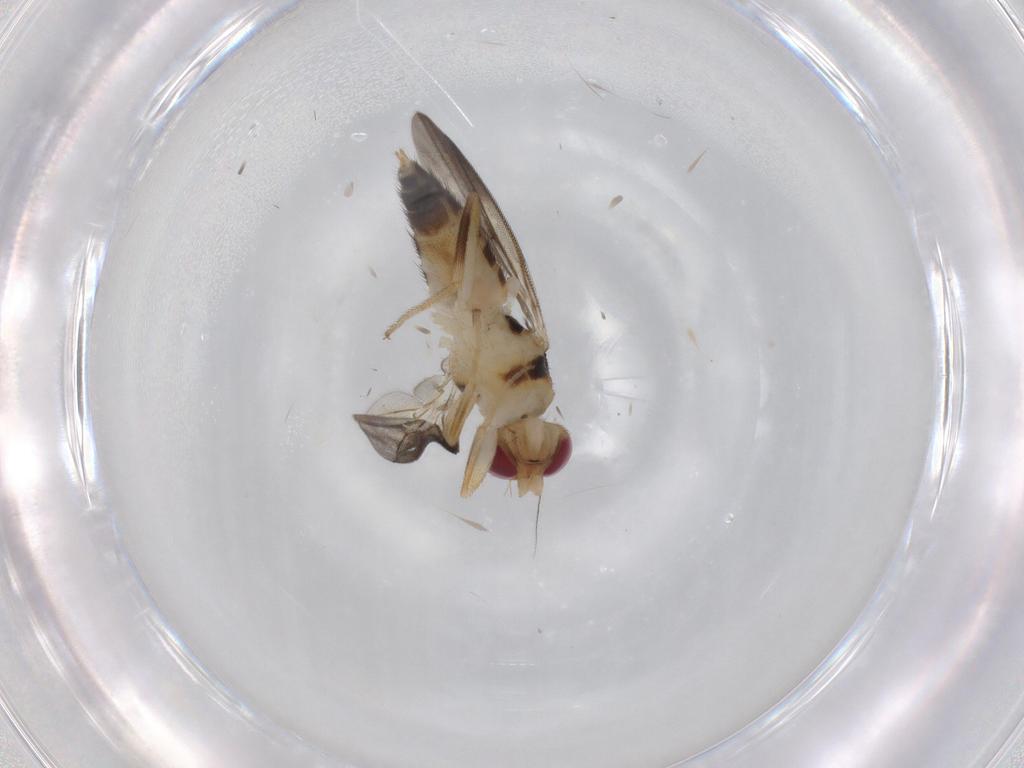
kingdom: Animalia
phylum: Arthropoda
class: Insecta
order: Diptera
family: Clusiidae
